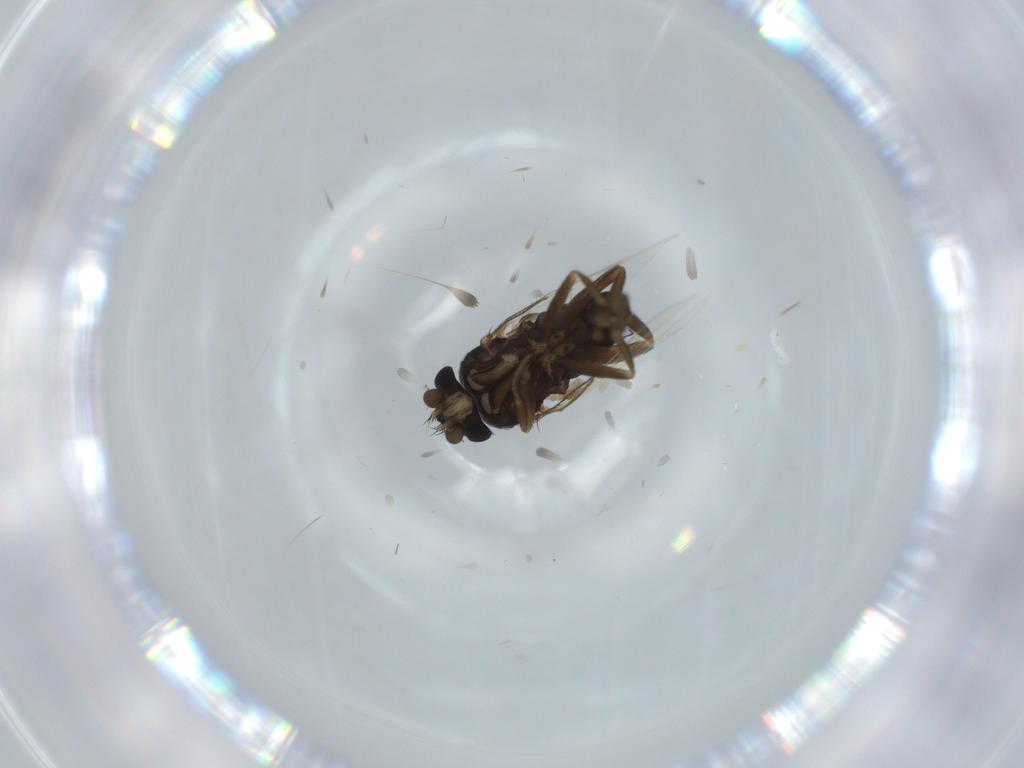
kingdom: Animalia
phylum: Arthropoda
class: Insecta
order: Diptera
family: Phoridae
